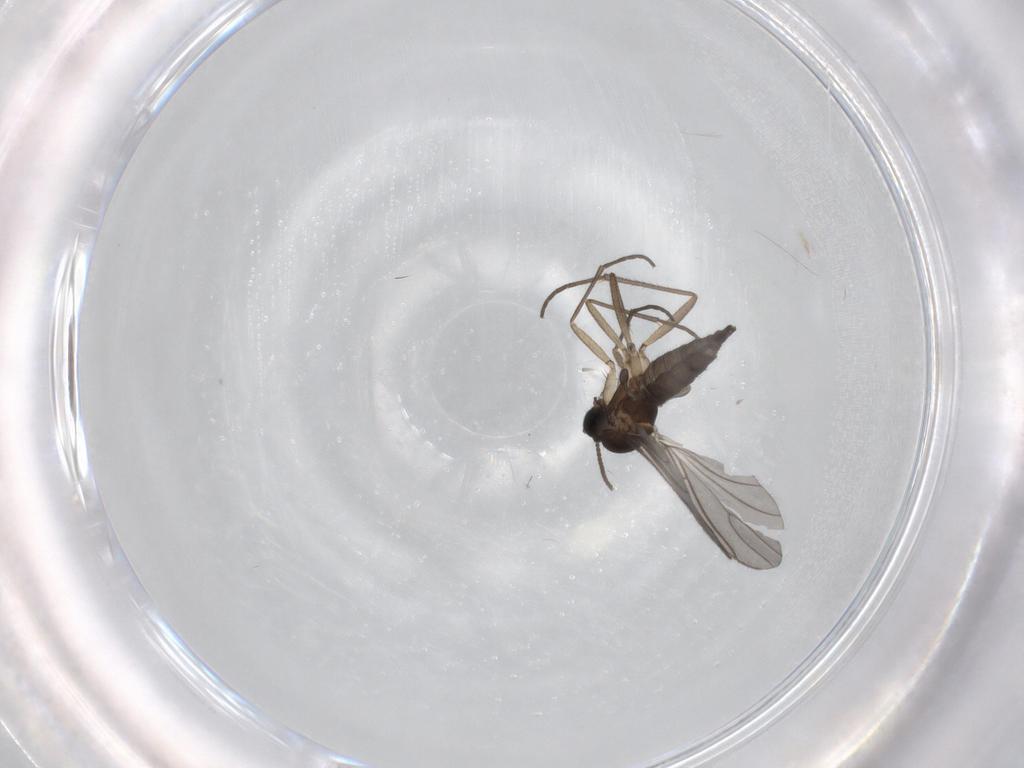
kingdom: Animalia
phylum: Arthropoda
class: Insecta
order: Diptera
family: Sciaridae
